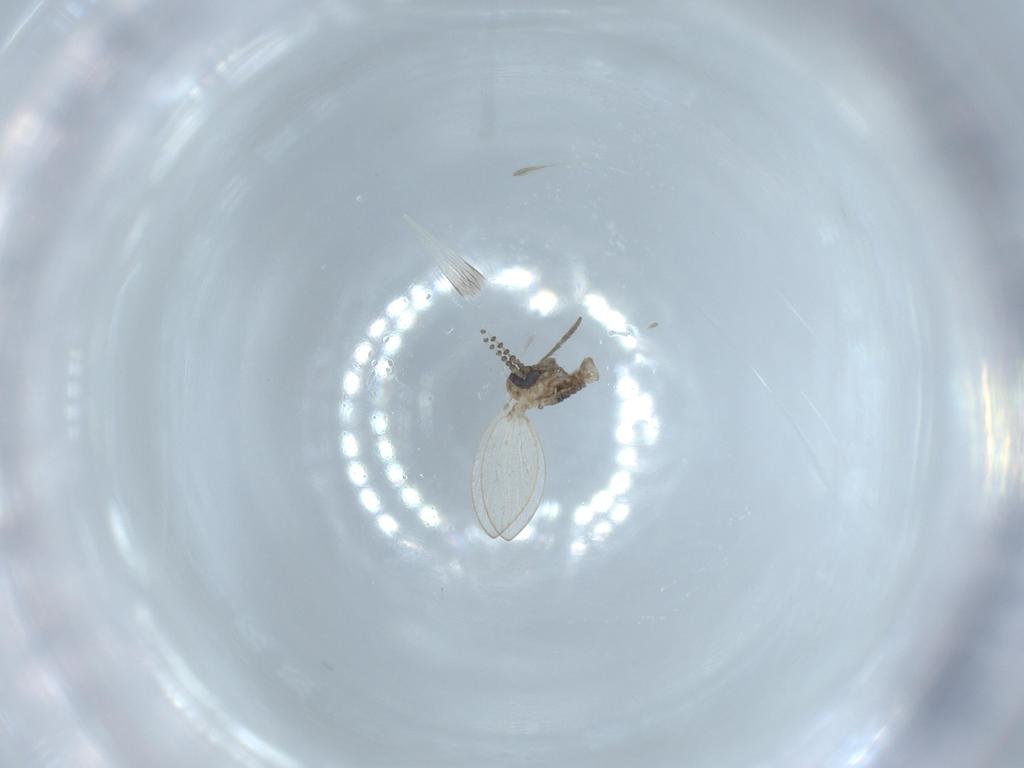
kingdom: Animalia
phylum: Arthropoda
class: Insecta
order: Diptera
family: Psychodidae
